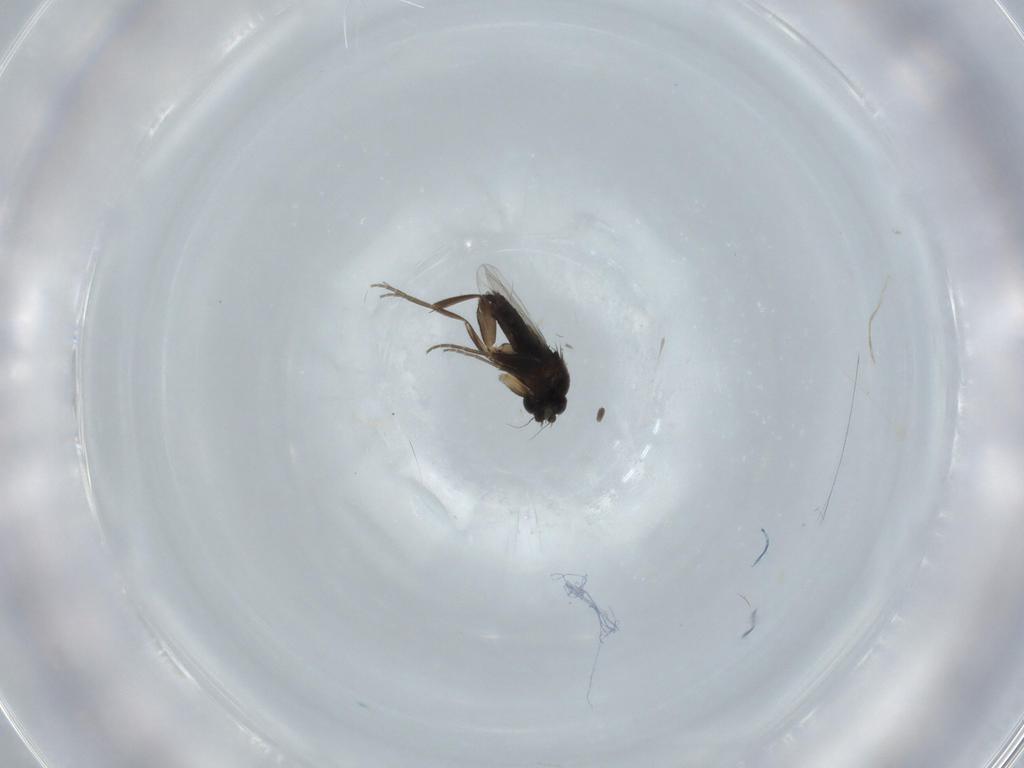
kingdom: Animalia
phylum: Arthropoda
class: Insecta
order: Diptera
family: Phoridae
